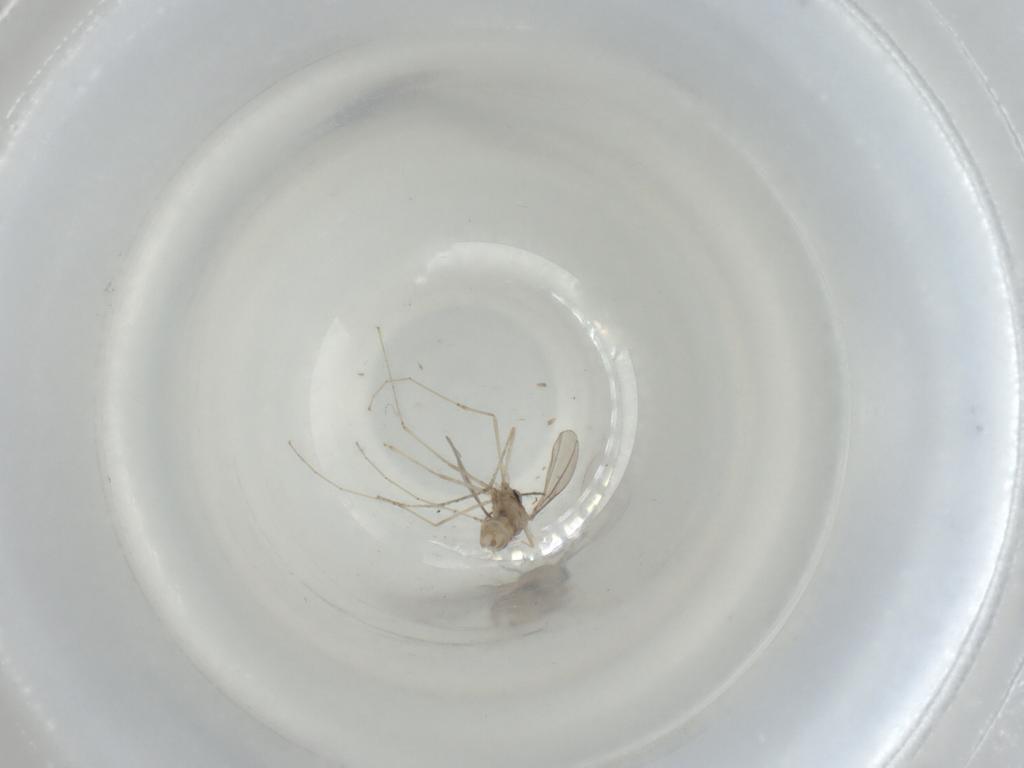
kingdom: Animalia
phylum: Arthropoda
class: Insecta
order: Diptera
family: Cecidomyiidae
